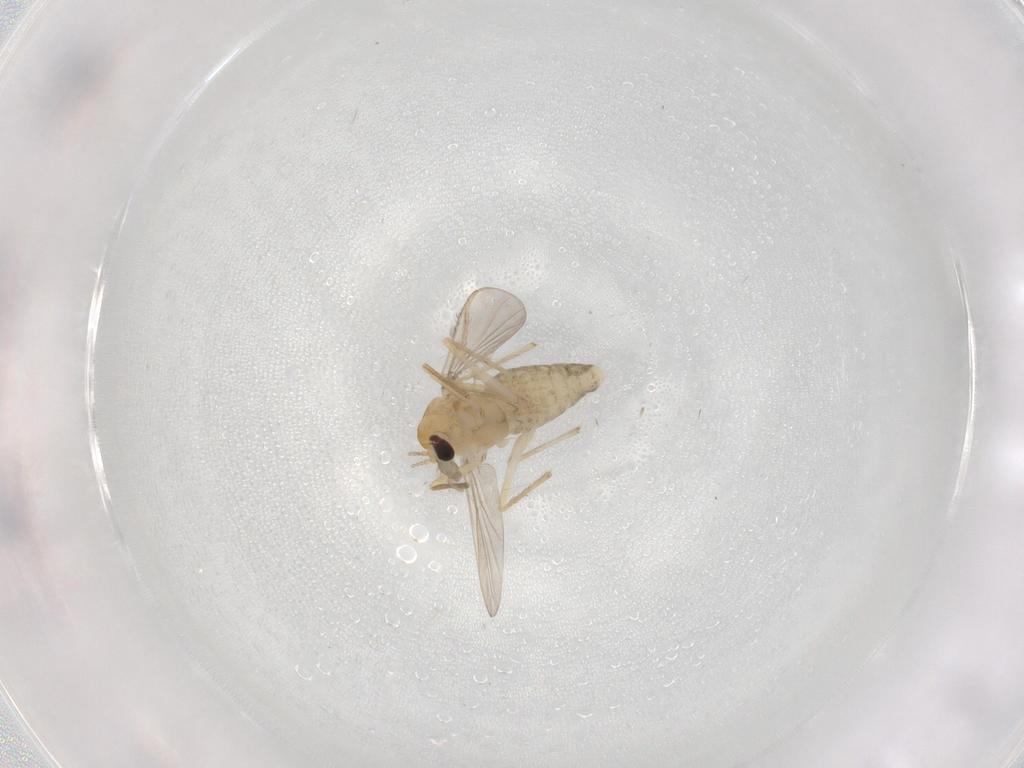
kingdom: Animalia
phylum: Arthropoda
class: Insecta
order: Diptera
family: Chironomidae
